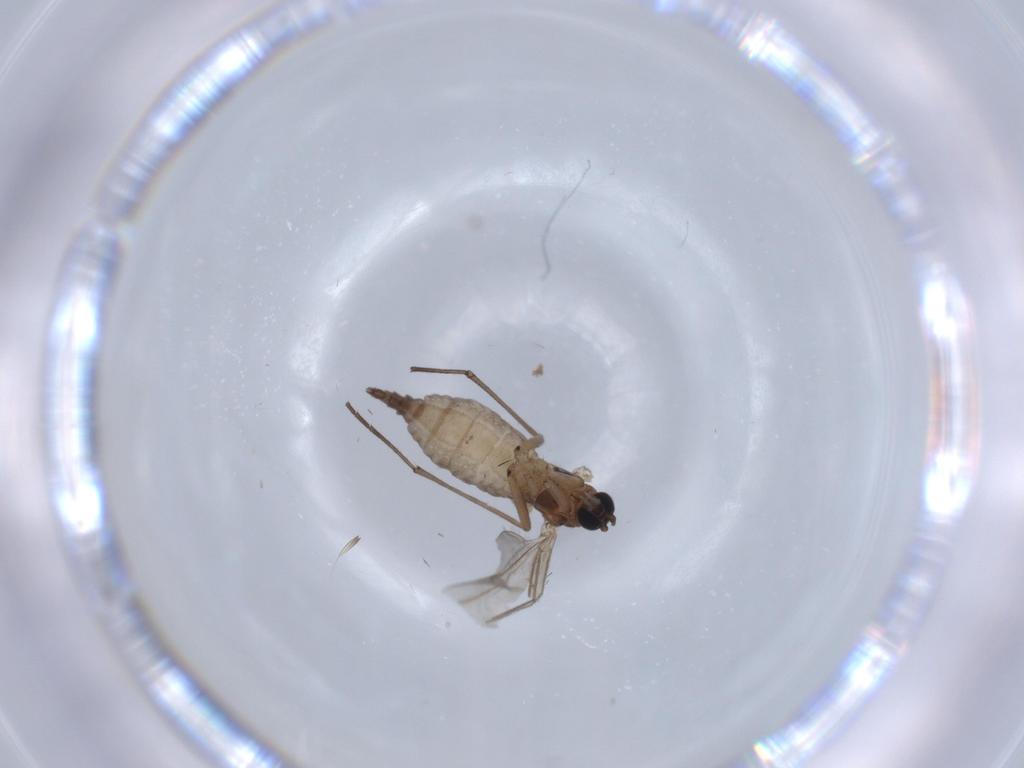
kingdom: Animalia
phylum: Arthropoda
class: Insecta
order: Diptera
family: Sciaridae
